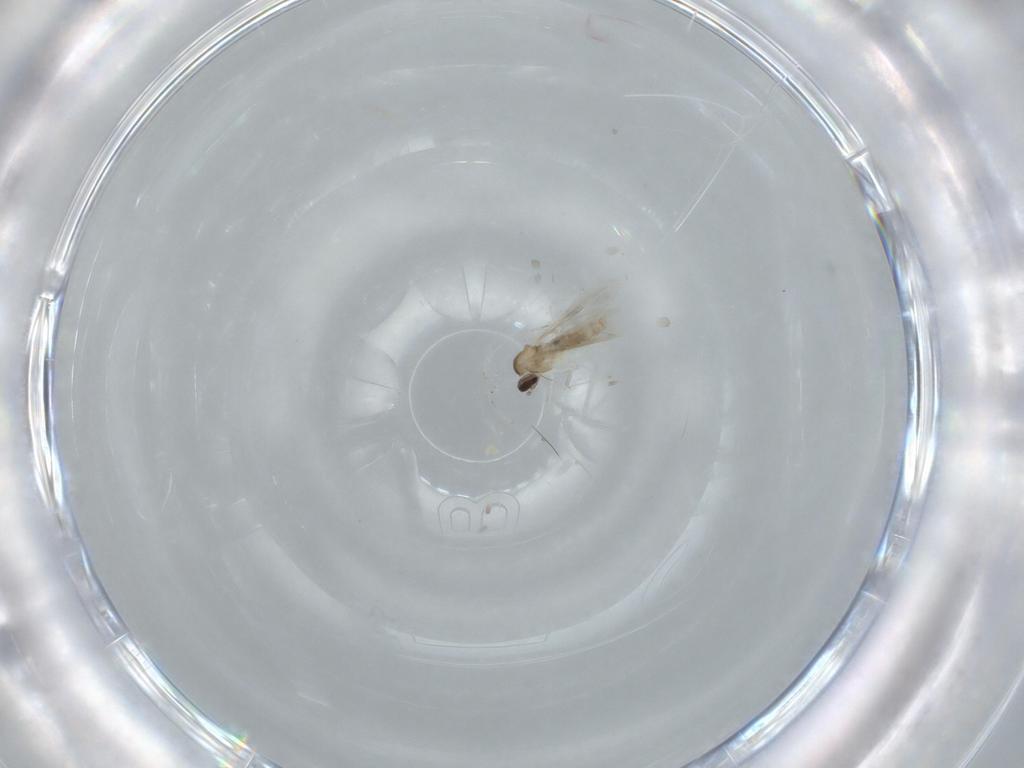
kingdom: Animalia
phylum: Arthropoda
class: Insecta
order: Diptera
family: Cecidomyiidae
